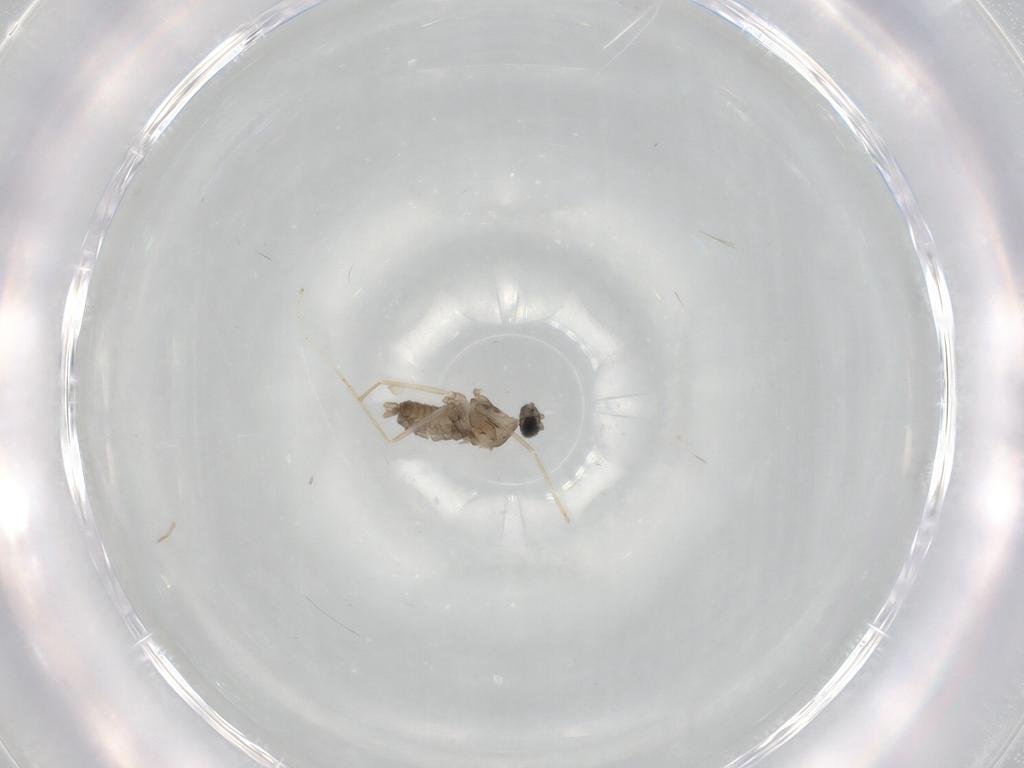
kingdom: Animalia
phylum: Arthropoda
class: Insecta
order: Diptera
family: Cecidomyiidae
